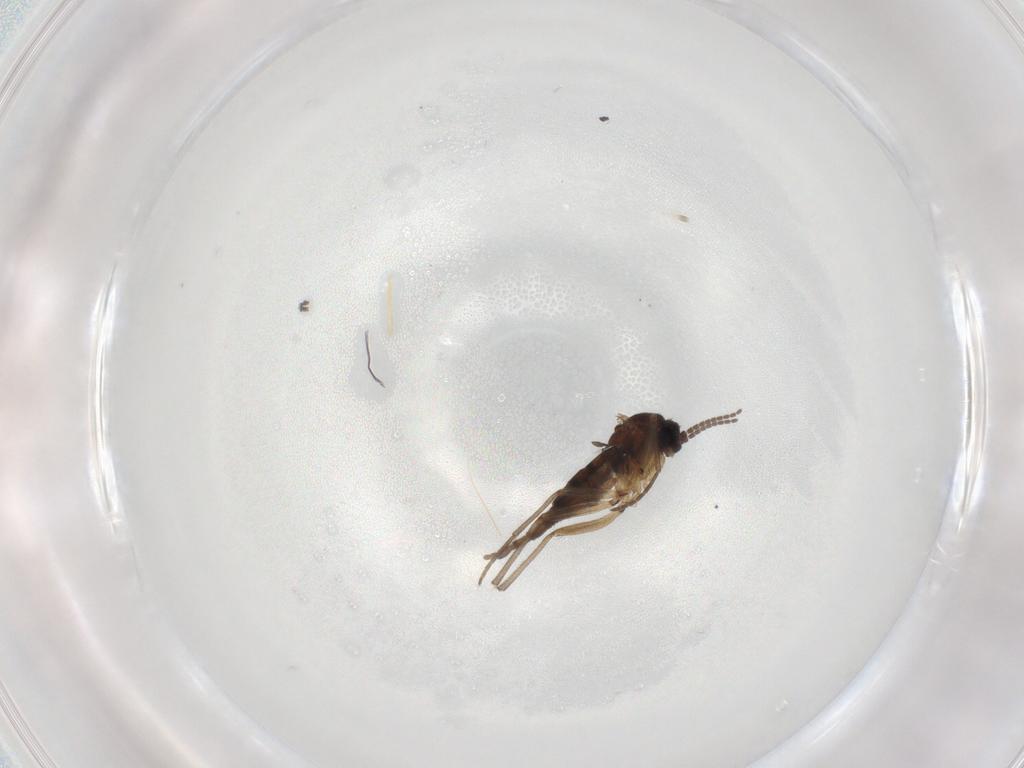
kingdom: Animalia
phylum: Arthropoda
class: Insecta
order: Diptera
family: Sciaridae
